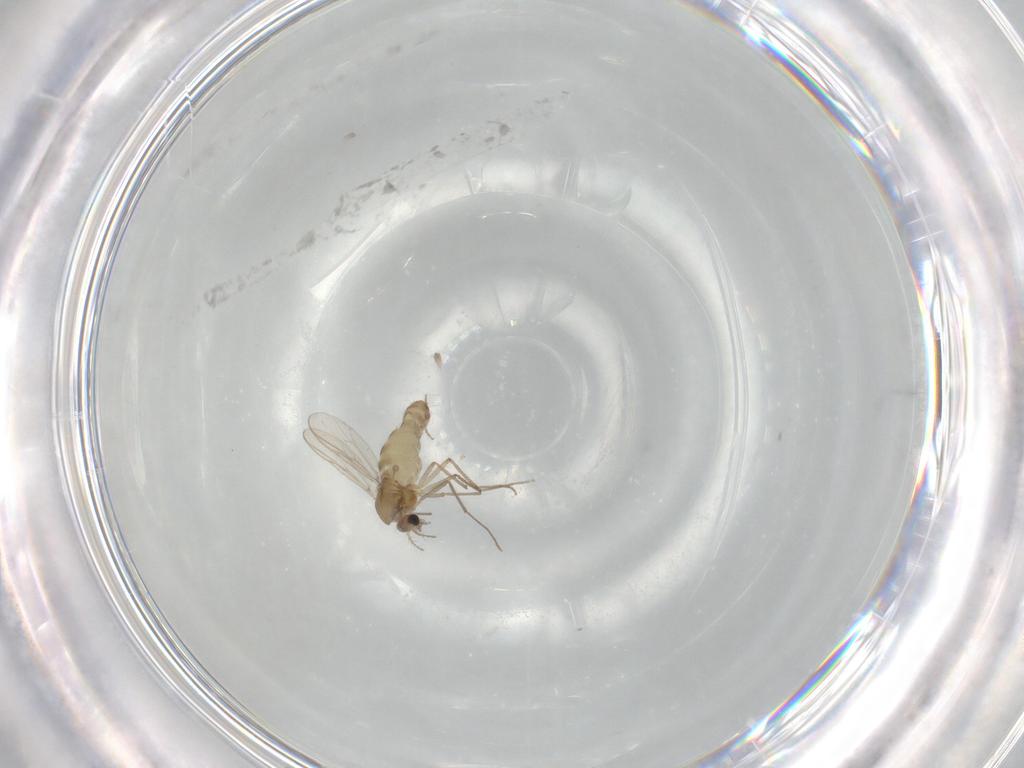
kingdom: Animalia
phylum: Arthropoda
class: Insecta
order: Diptera
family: Chironomidae
